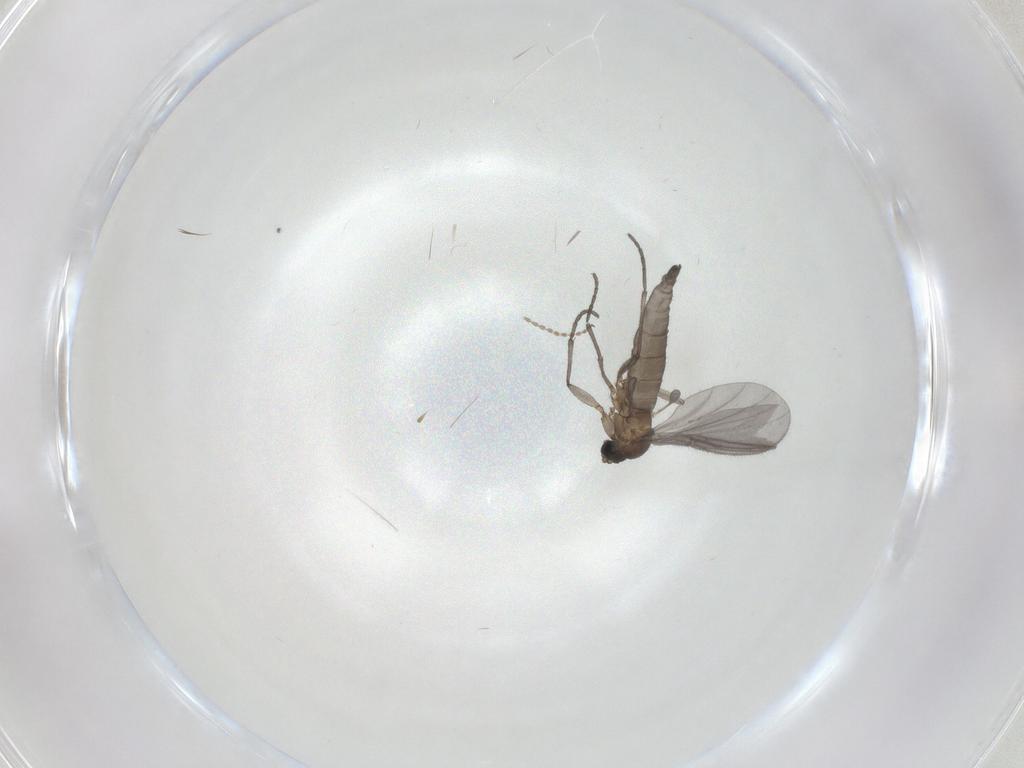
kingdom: Animalia
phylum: Arthropoda
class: Insecta
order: Diptera
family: Sciaridae
